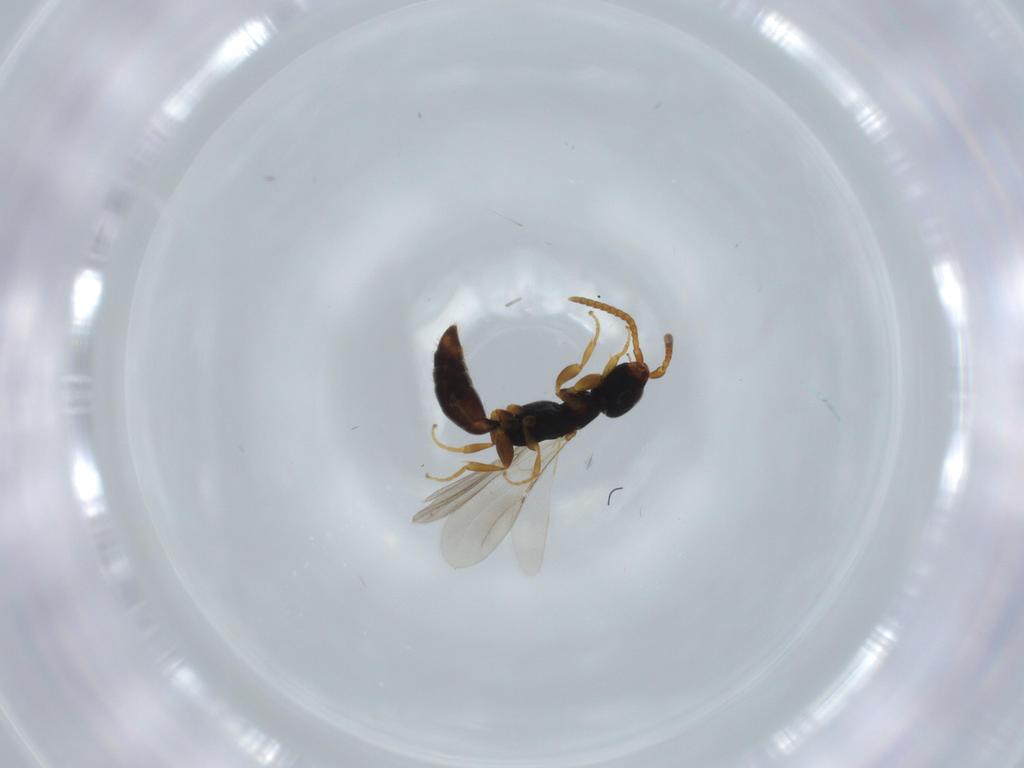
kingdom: Animalia
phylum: Arthropoda
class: Insecta
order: Hymenoptera
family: Bethylidae
